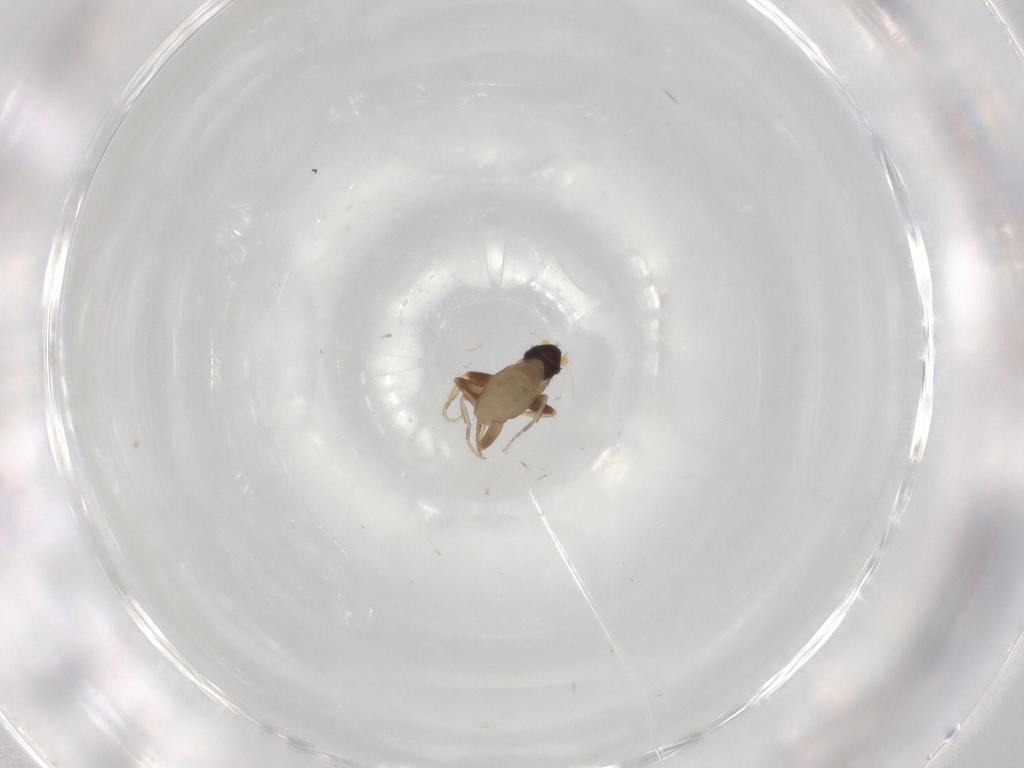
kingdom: Animalia
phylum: Arthropoda
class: Insecta
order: Diptera
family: Phoridae
